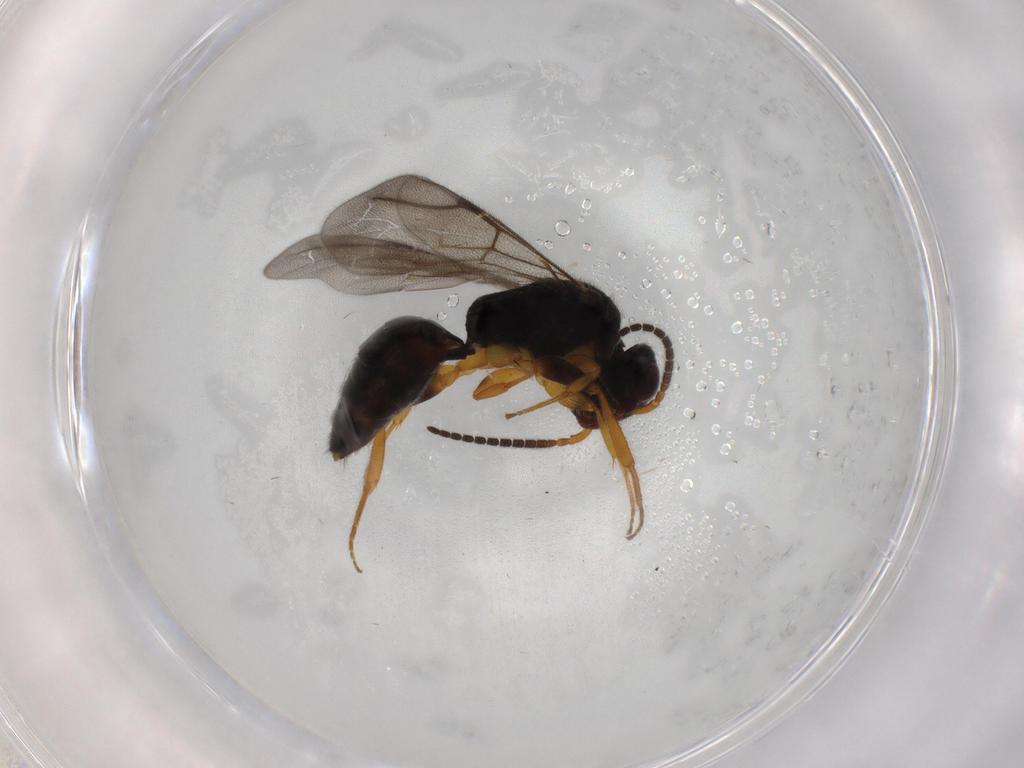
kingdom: Animalia
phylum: Arthropoda
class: Insecta
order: Hymenoptera
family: Bethylidae
